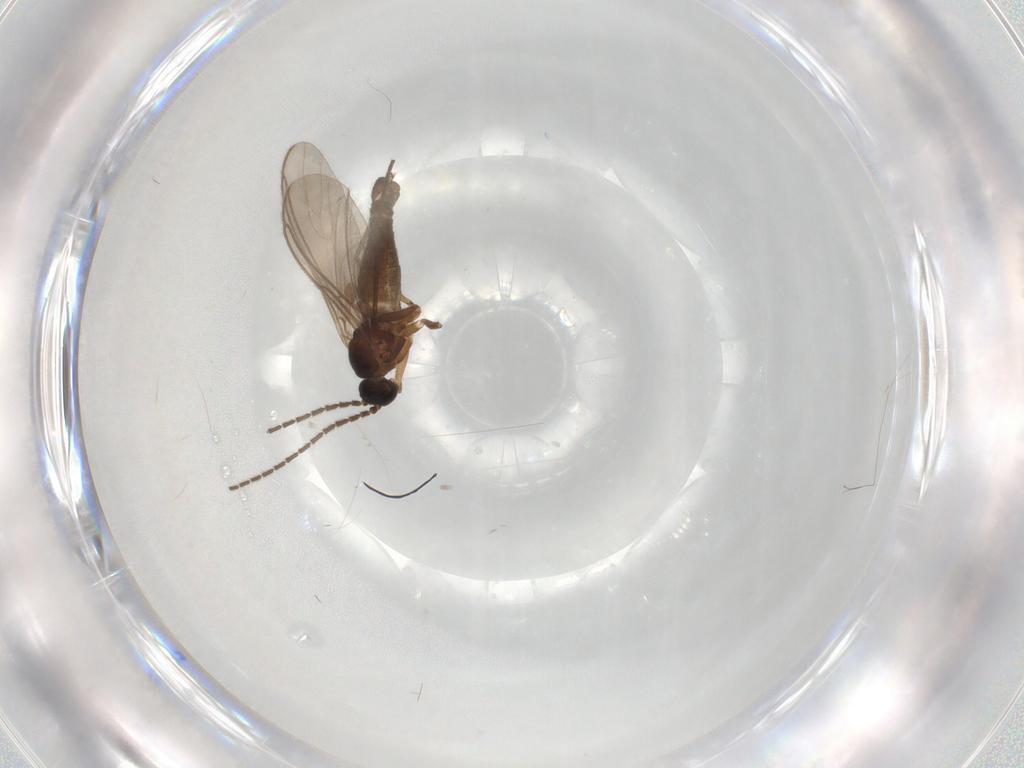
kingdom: Animalia
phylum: Arthropoda
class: Insecta
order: Diptera
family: Sciaridae
